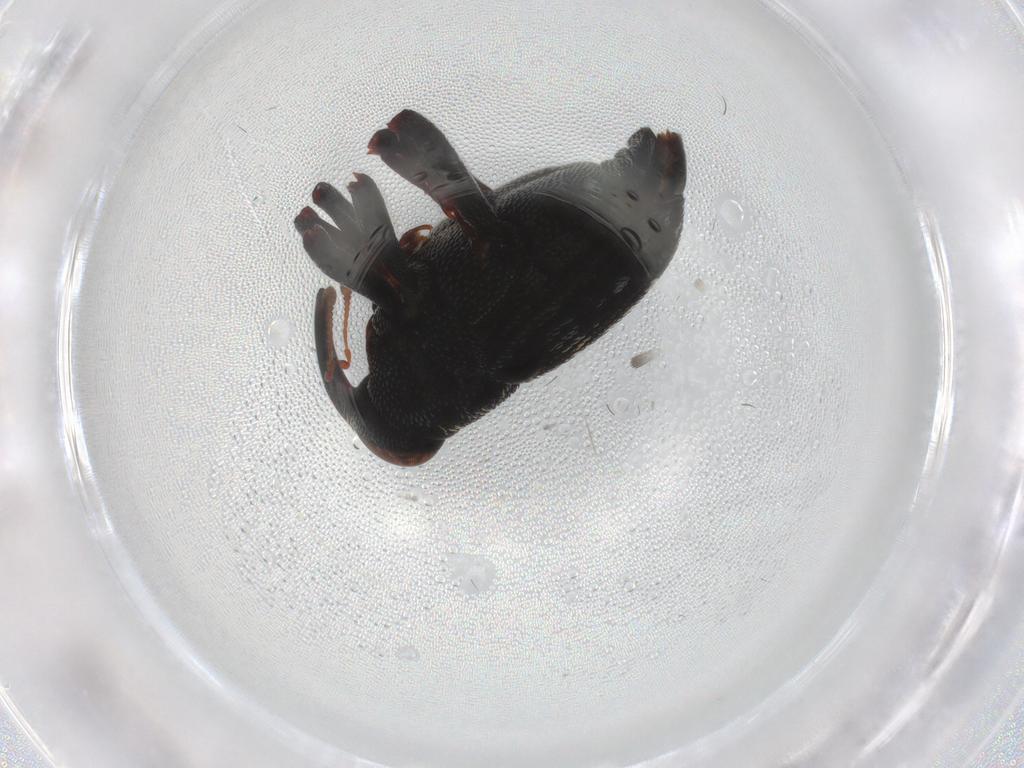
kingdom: Animalia
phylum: Arthropoda
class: Insecta
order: Coleoptera
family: Curculionidae
